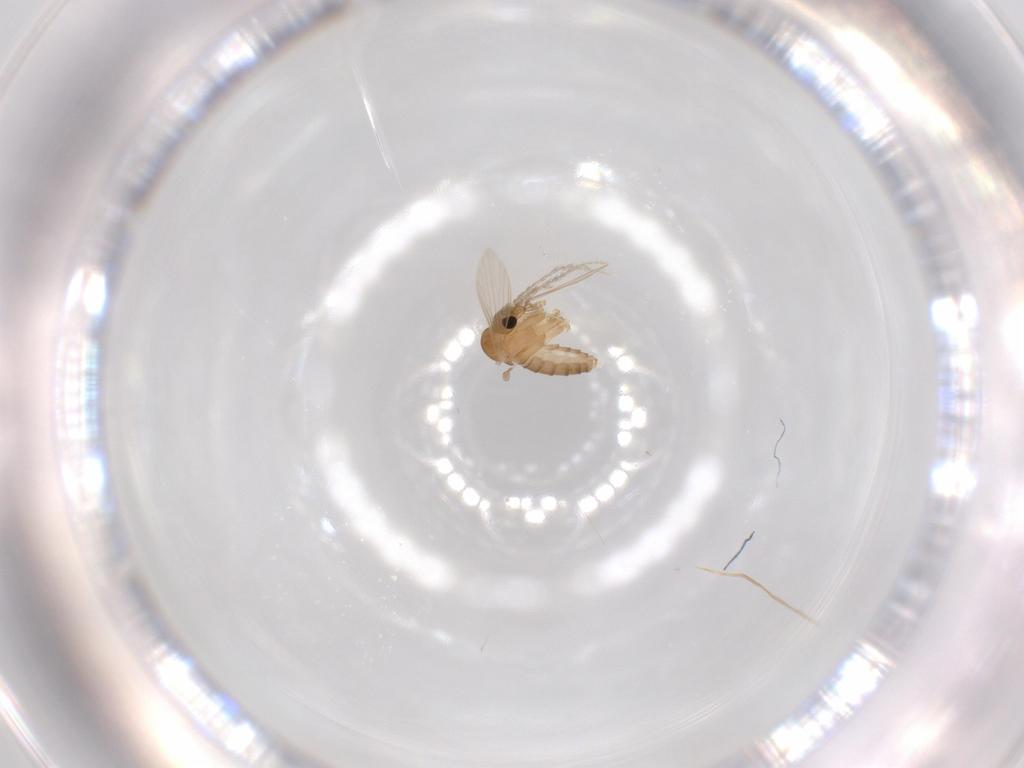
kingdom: Animalia
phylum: Arthropoda
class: Insecta
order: Diptera
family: Psychodidae
